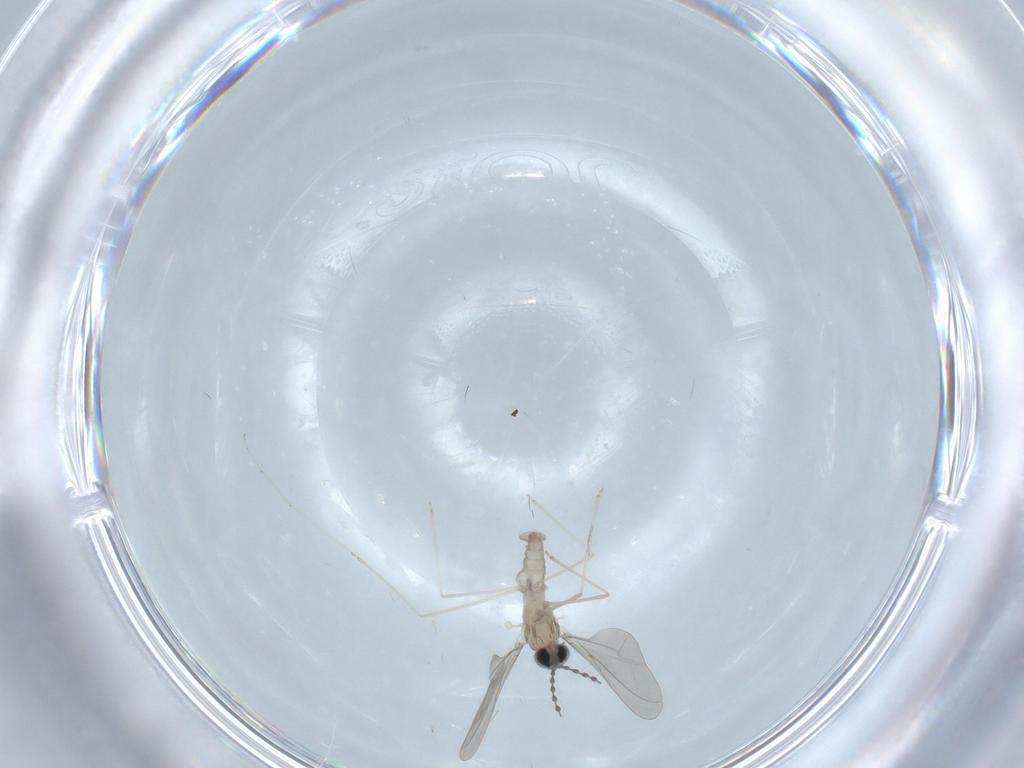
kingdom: Animalia
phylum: Arthropoda
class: Insecta
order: Diptera
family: Cecidomyiidae
